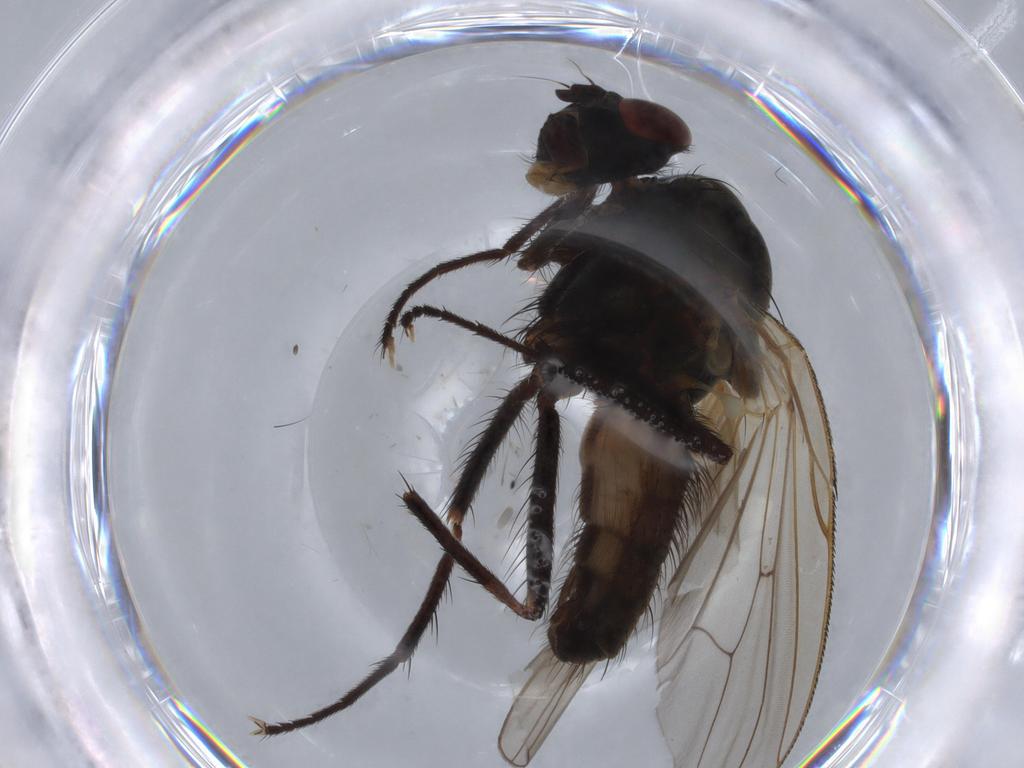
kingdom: Animalia
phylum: Arthropoda
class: Insecta
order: Diptera
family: Anthomyiidae
